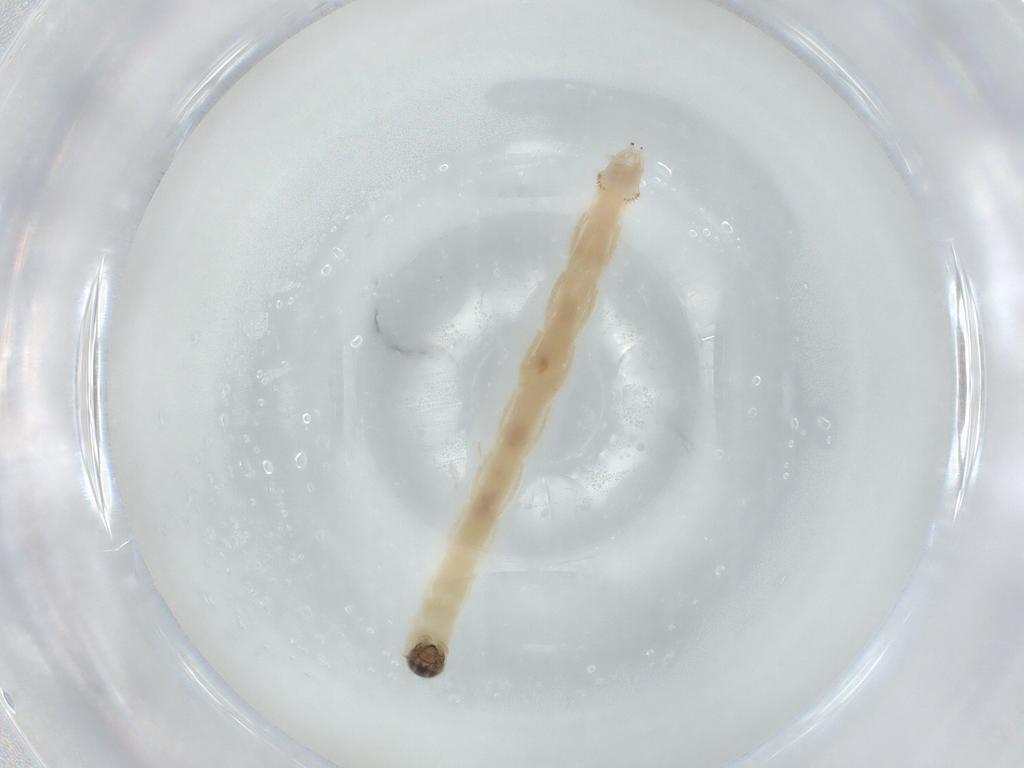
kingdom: Animalia
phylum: Arthropoda
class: Insecta
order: Diptera
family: Chironomidae
